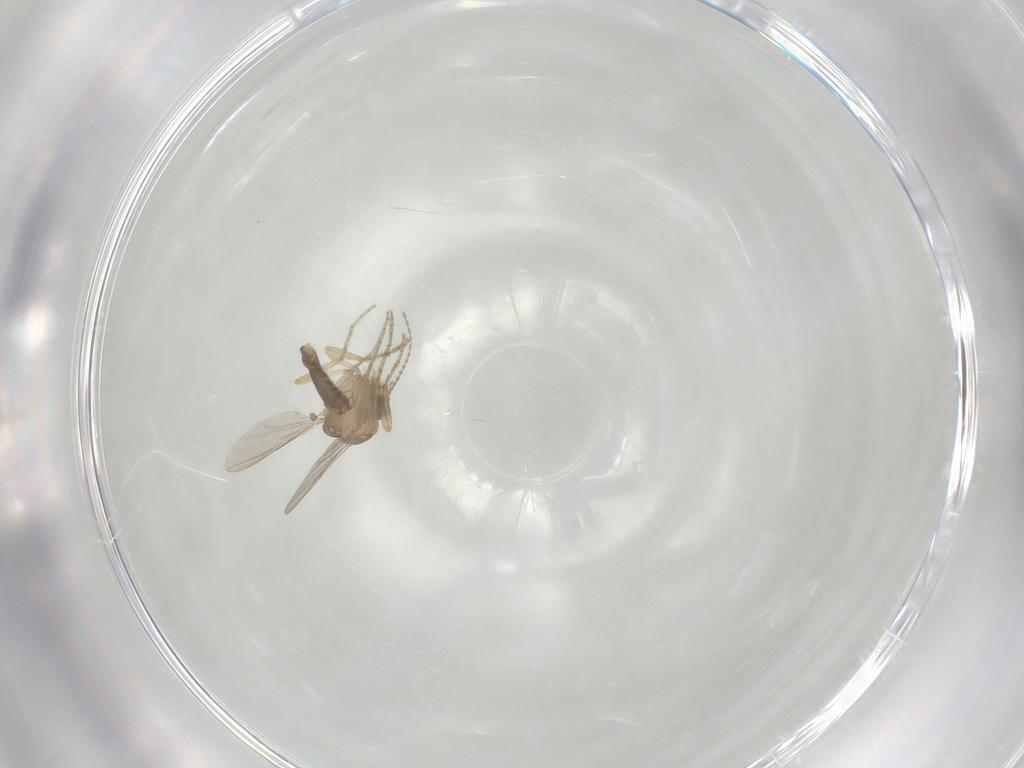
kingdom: Animalia
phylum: Arthropoda
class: Insecta
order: Diptera
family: Ceratopogonidae
